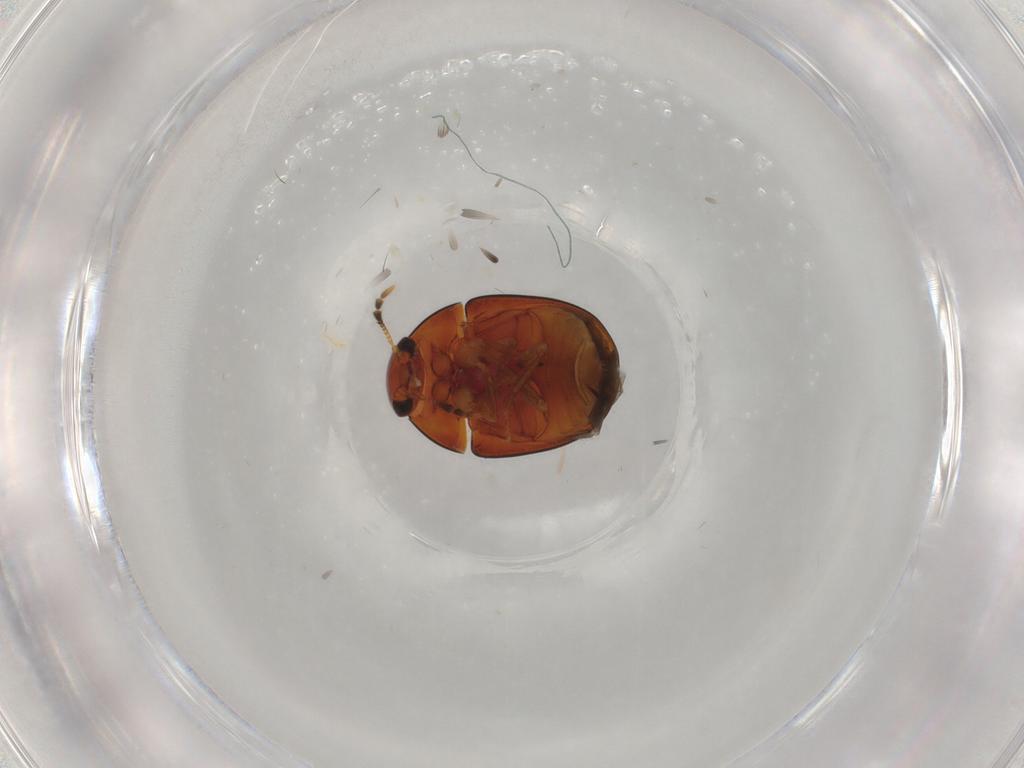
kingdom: Animalia
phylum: Arthropoda
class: Insecta
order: Coleoptera
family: Phalacridae
